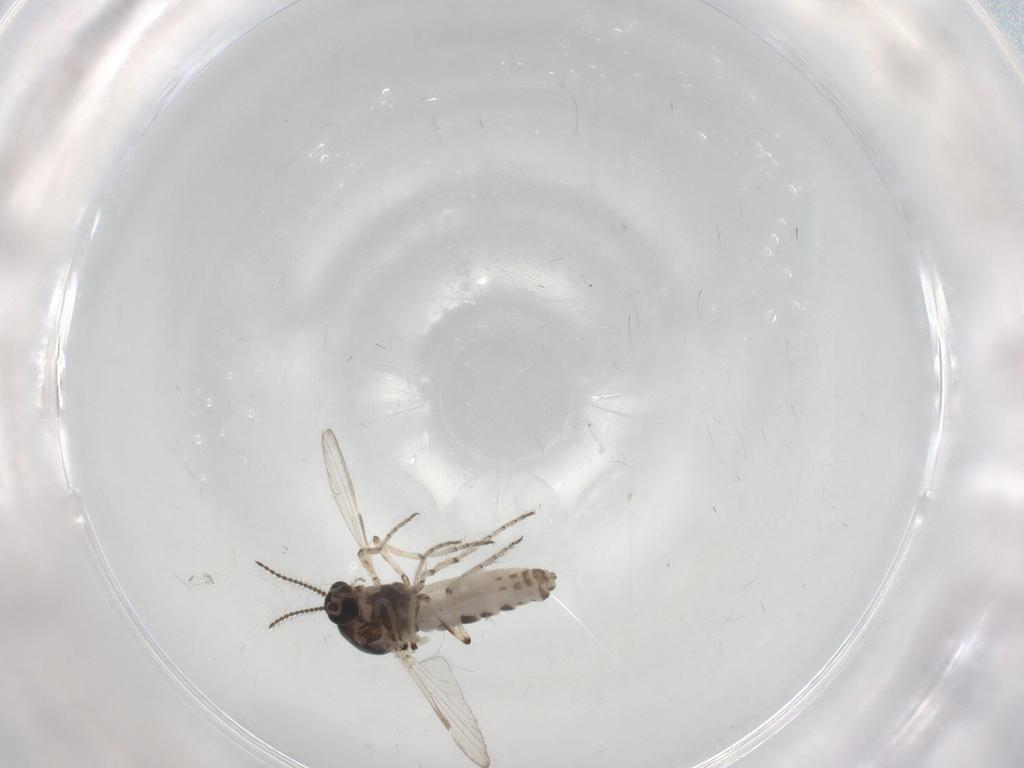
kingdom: Animalia
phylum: Arthropoda
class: Insecta
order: Diptera
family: Ceratopogonidae
